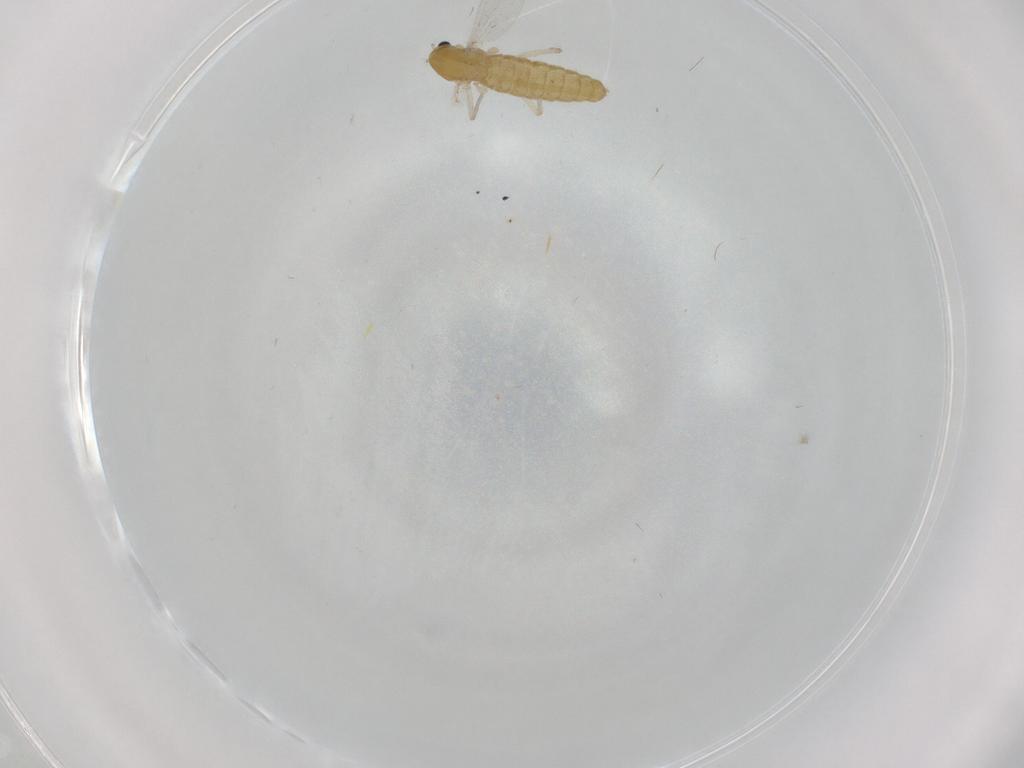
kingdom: Animalia
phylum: Arthropoda
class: Insecta
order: Diptera
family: Chironomidae
